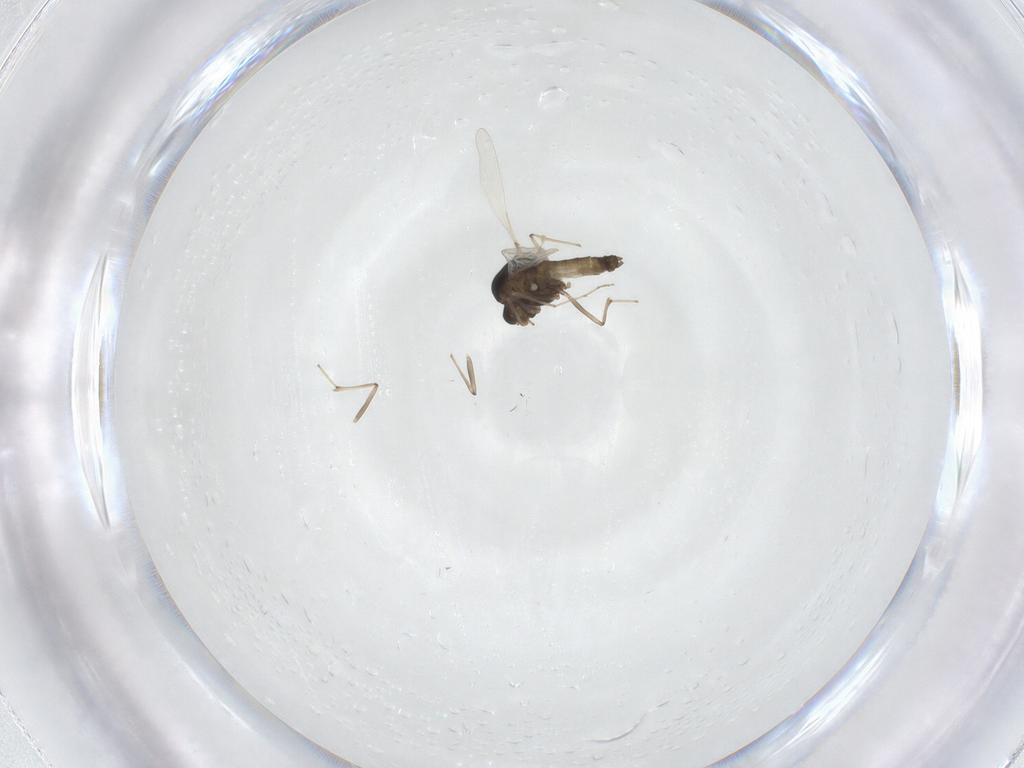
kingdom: Animalia
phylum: Arthropoda
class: Insecta
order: Diptera
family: Chironomidae
